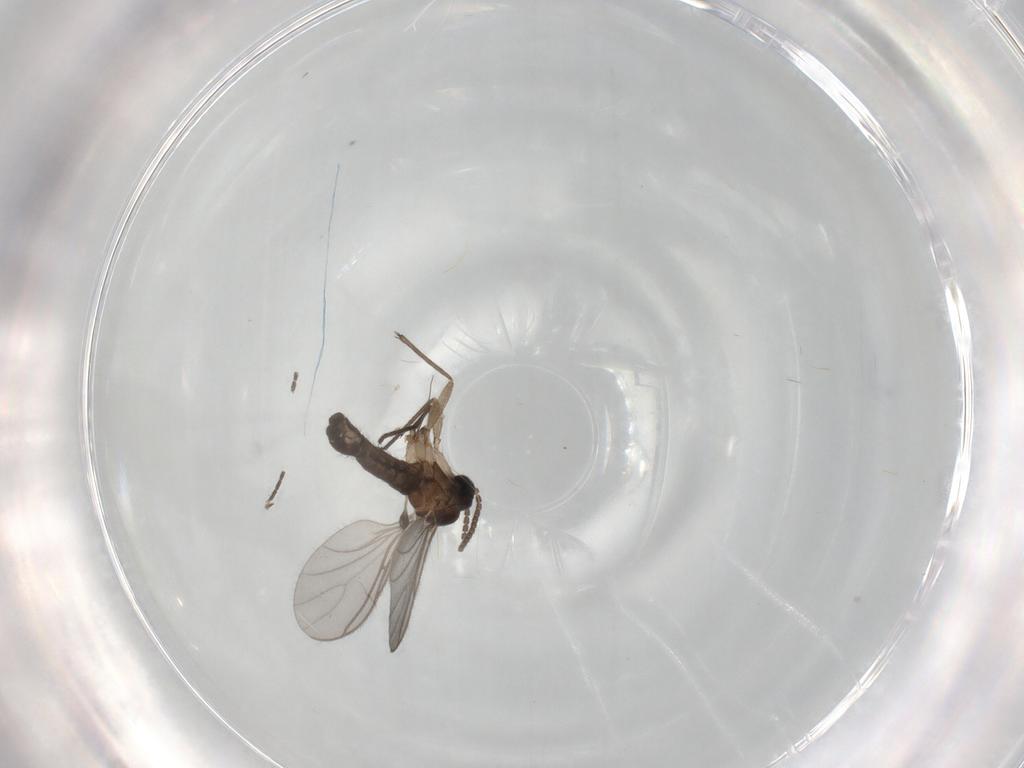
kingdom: Animalia
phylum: Arthropoda
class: Insecta
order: Diptera
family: Sciaridae
